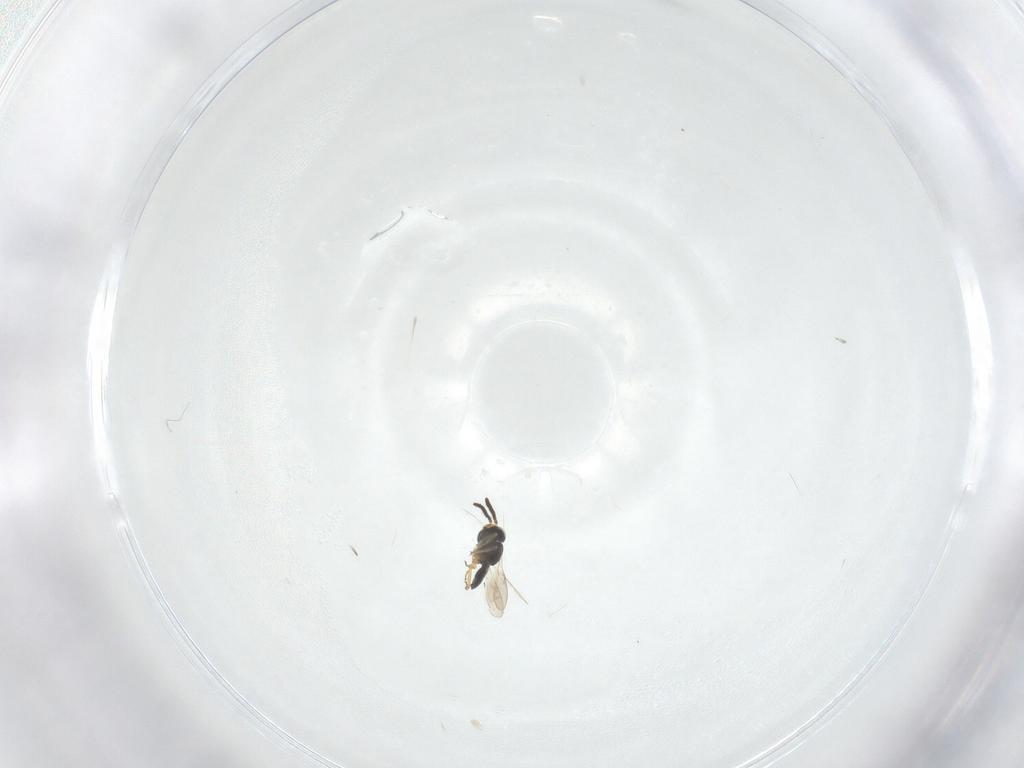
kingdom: Animalia
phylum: Arthropoda
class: Insecta
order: Hymenoptera
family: Scelionidae
